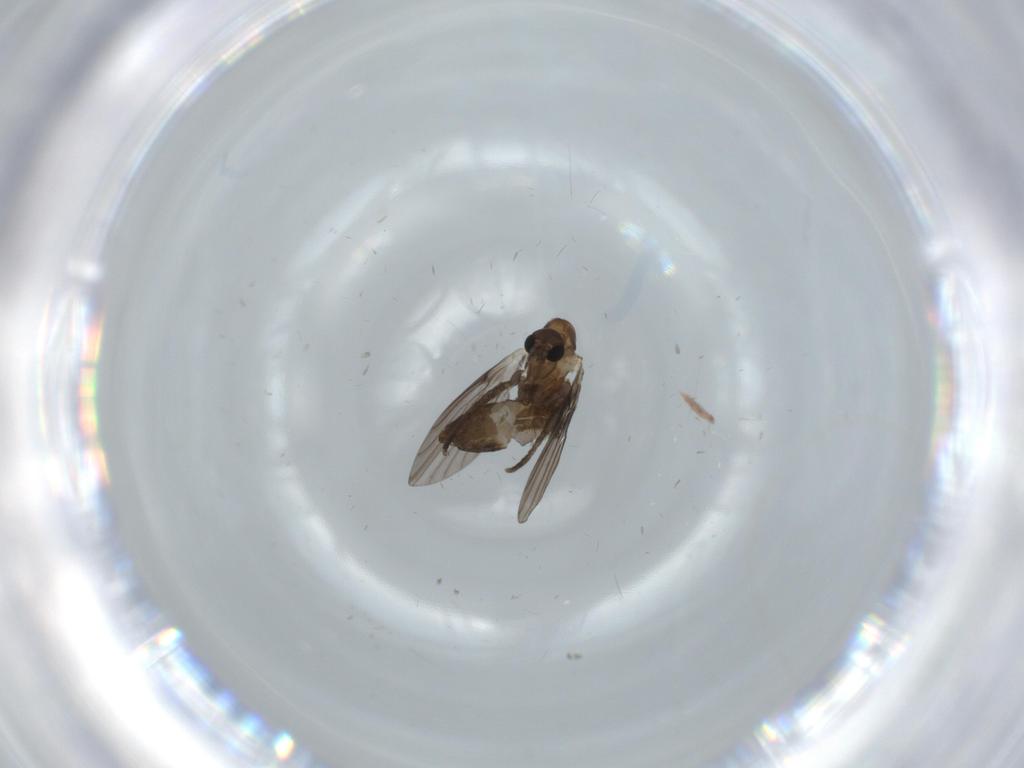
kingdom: Animalia
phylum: Arthropoda
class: Insecta
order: Diptera
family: Psychodidae
